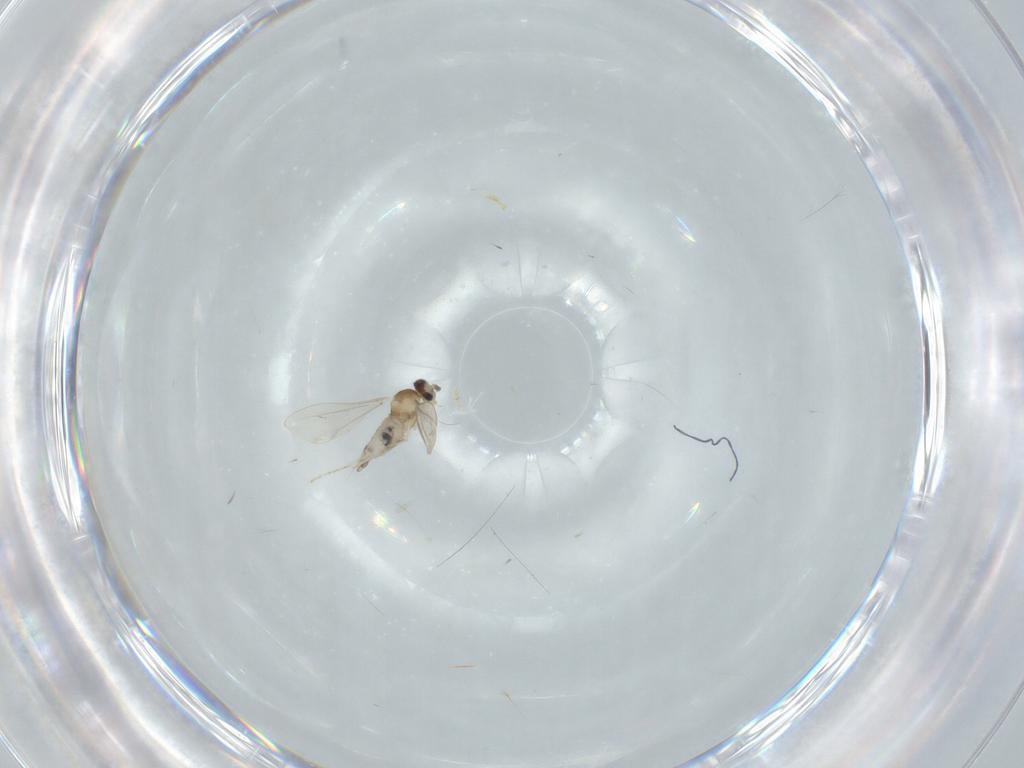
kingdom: Animalia
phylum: Arthropoda
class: Insecta
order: Diptera
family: Cecidomyiidae
